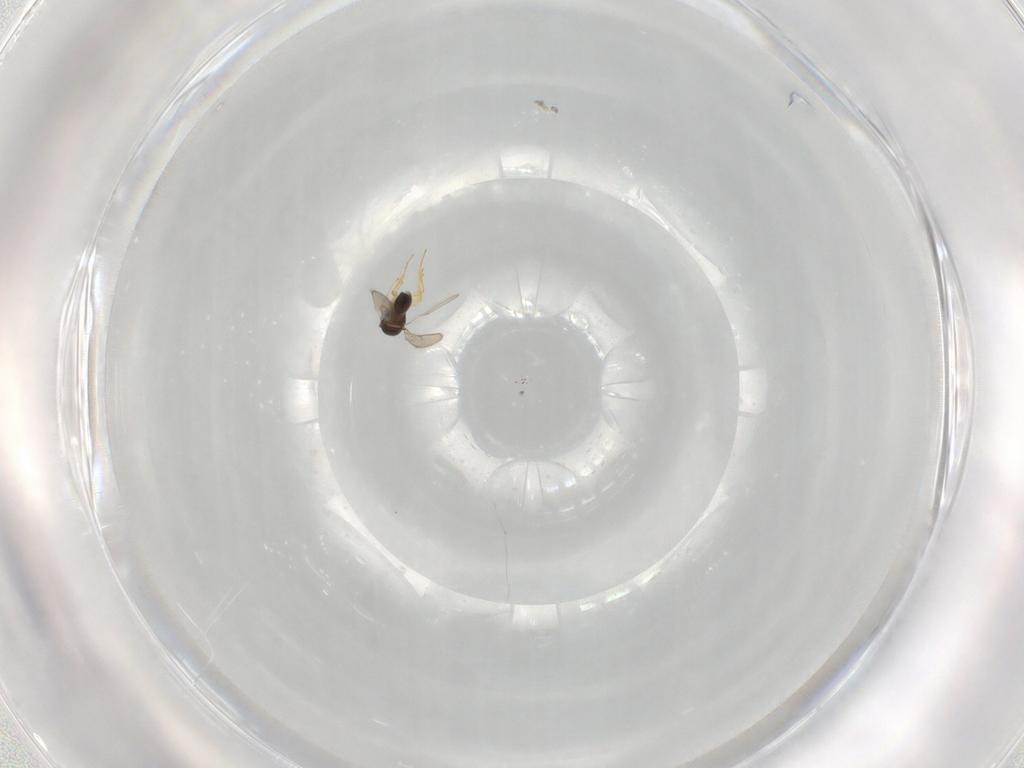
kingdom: Animalia
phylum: Arthropoda
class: Insecta
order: Hymenoptera
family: Scelionidae
